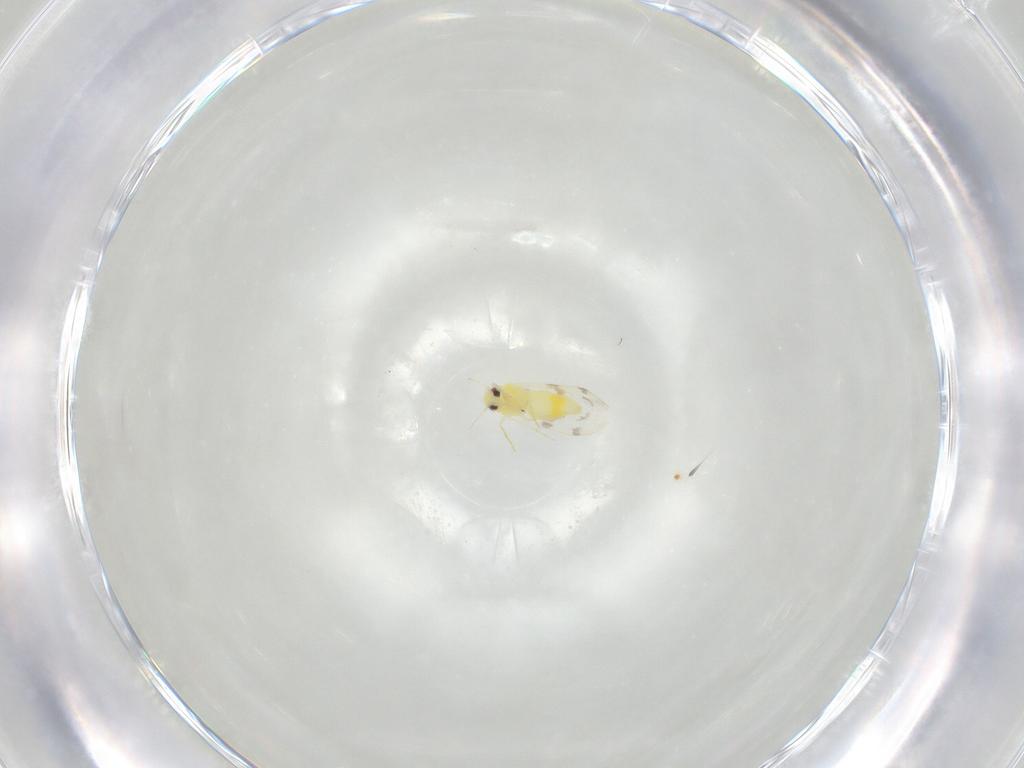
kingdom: Animalia
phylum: Arthropoda
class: Insecta
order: Hemiptera
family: Aleyrodidae
